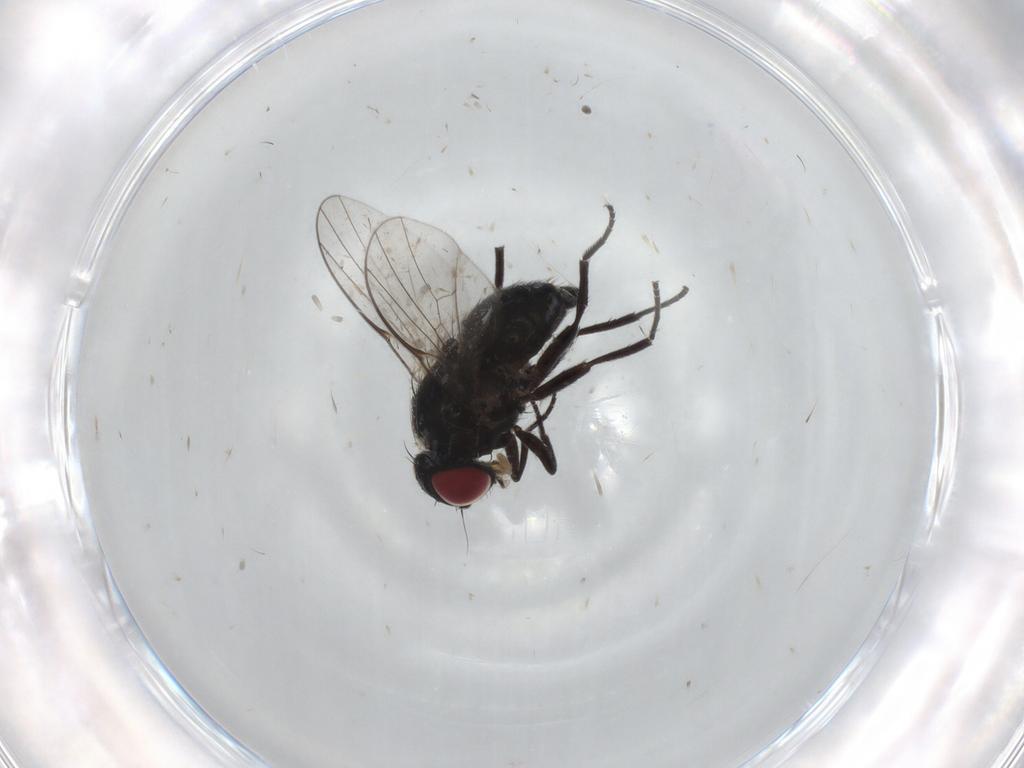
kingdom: Animalia
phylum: Arthropoda
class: Insecta
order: Diptera
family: Agromyzidae
